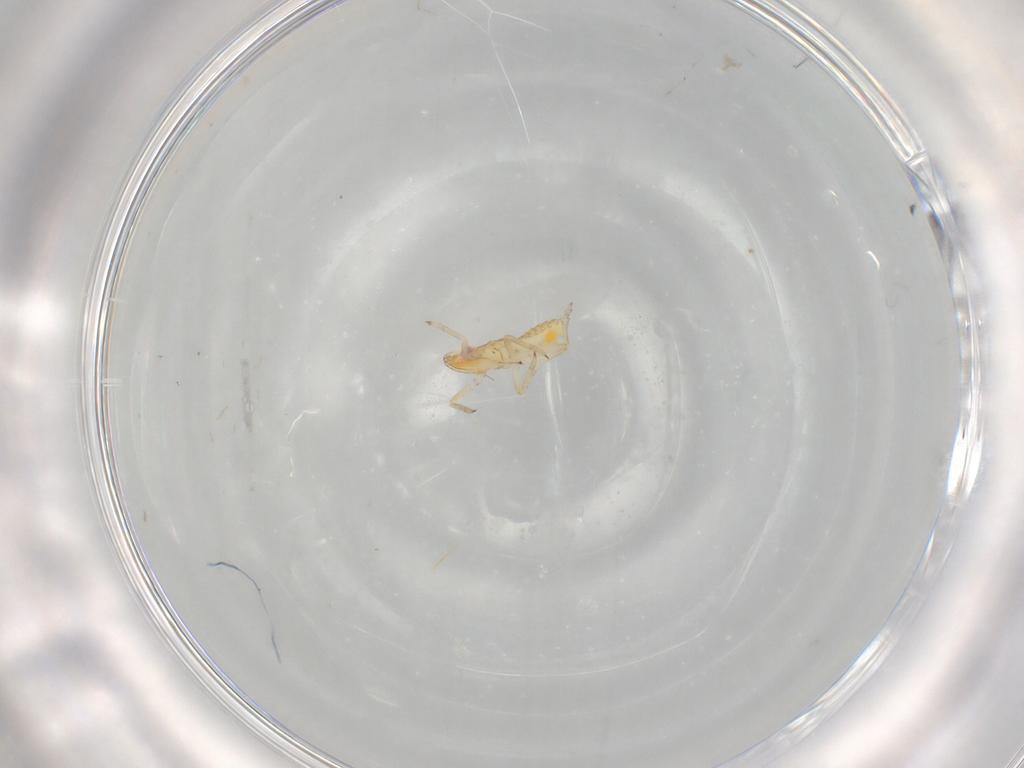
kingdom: Animalia
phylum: Arthropoda
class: Insecta
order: Hemiptera
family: Delphacidae
